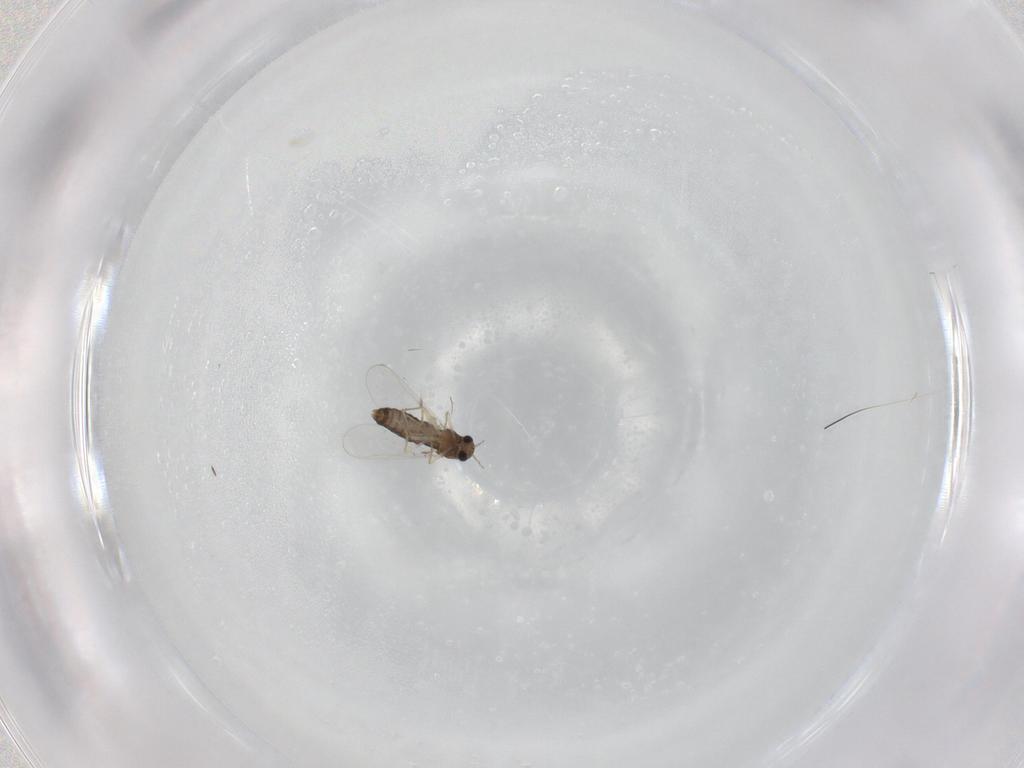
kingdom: Animalia
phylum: Arthropoda
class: Insecta
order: Diptera
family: Chironomidae
